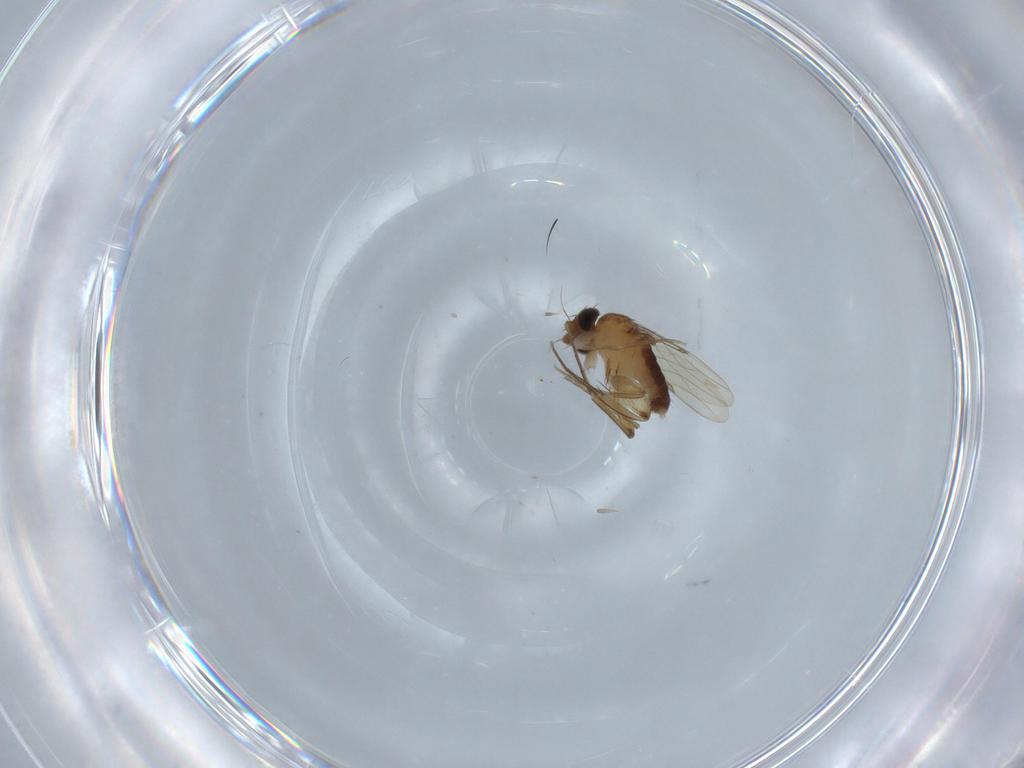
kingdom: Animalia
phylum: Arthropoda
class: Insecta
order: Diptera
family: Phoridae
